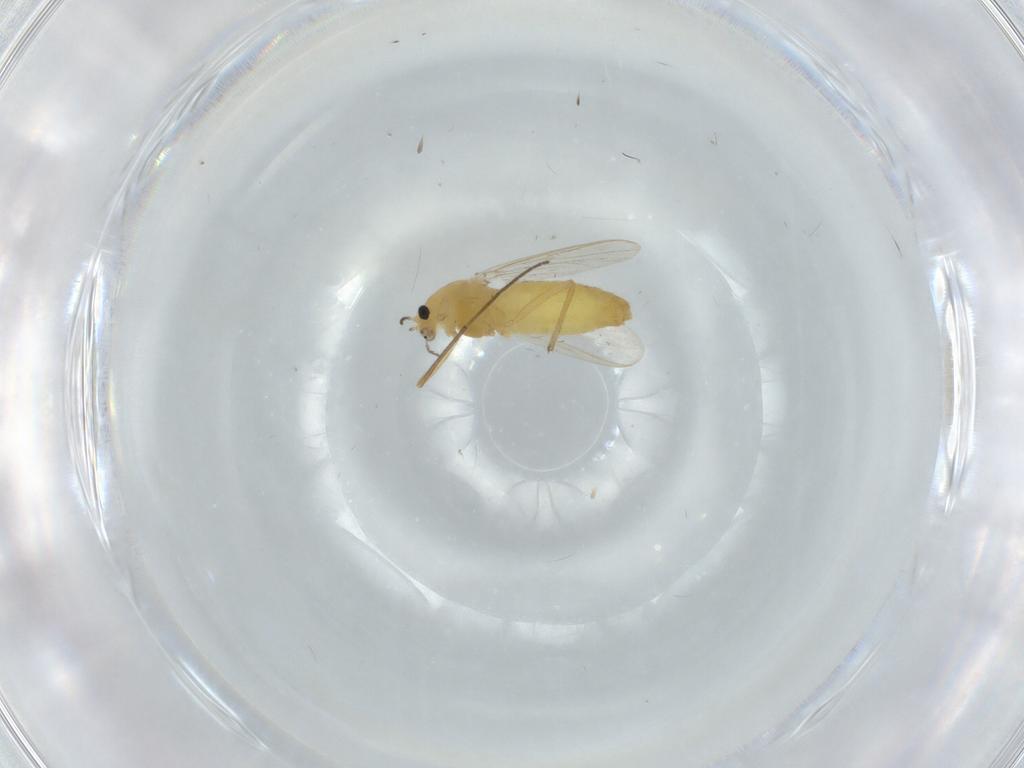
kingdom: Animalia
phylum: Arthropoda
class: Insecta
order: Diptera
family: Chironomidae
